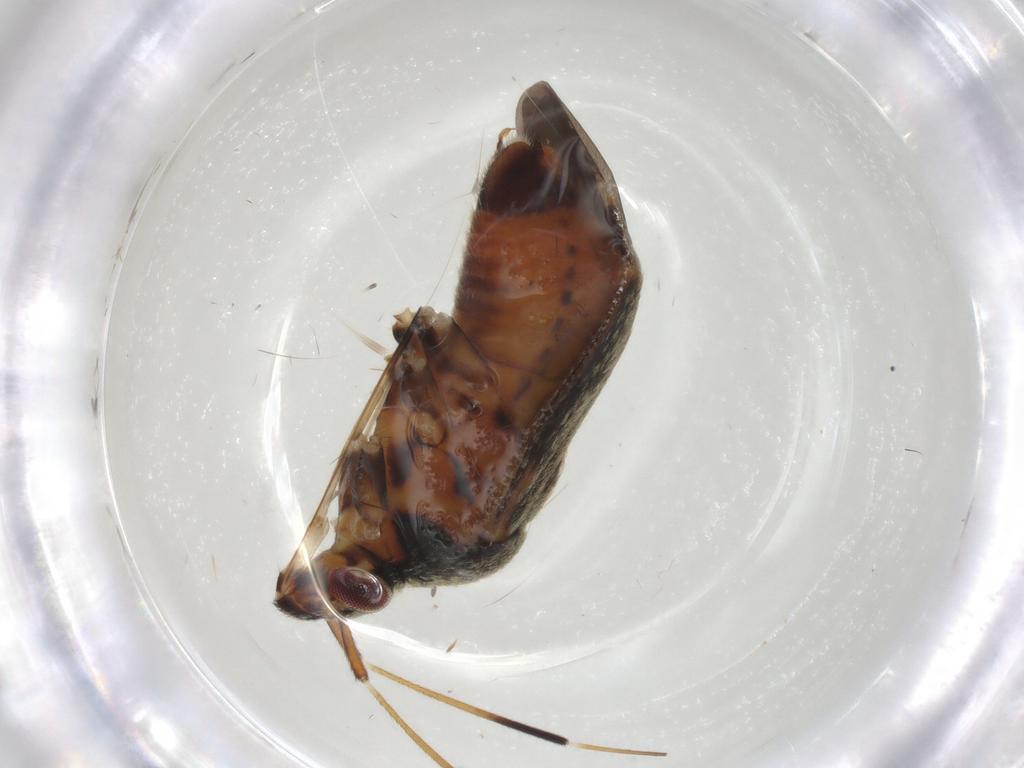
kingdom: Animalia
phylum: Arthropoda
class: Insecta
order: Hemiptera
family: Miridae
